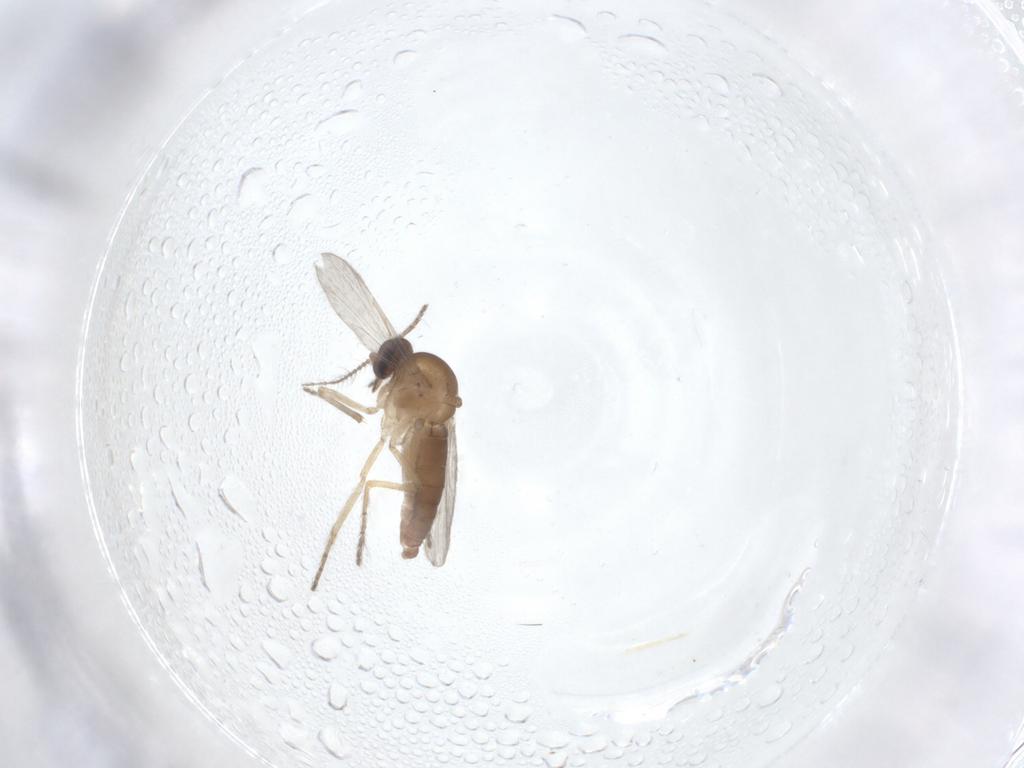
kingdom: Animalia
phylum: Arthropoda
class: Insecta
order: Diptera
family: Ceratopogonidae
